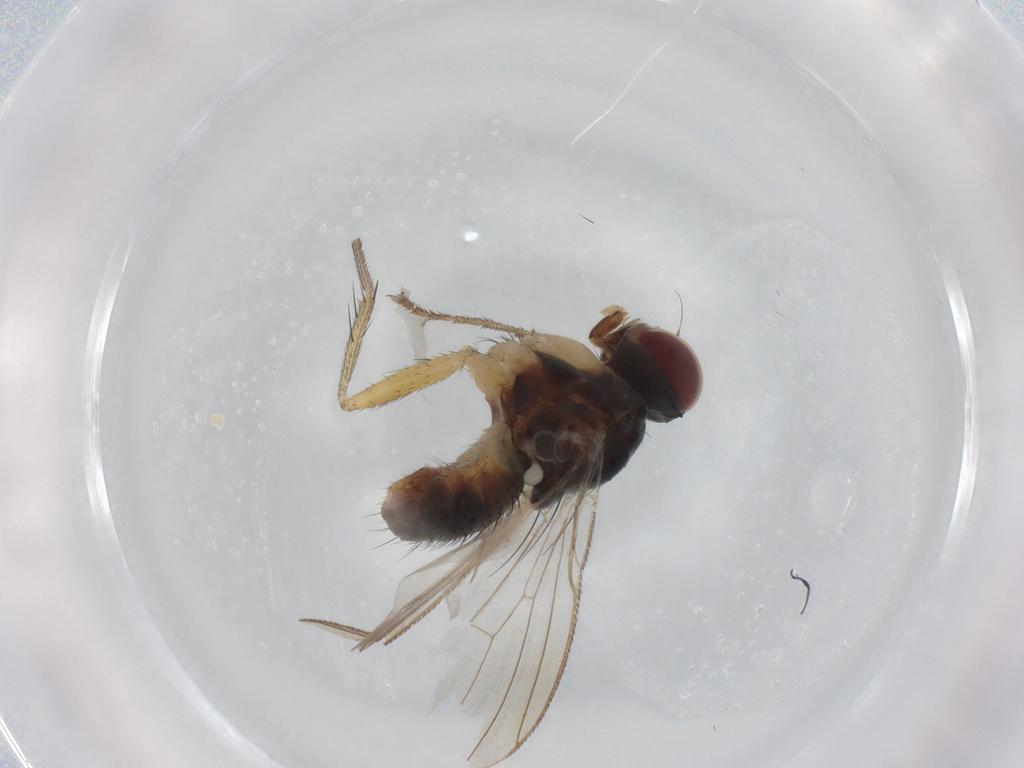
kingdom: Animalia
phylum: Arthropoda
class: Insecta
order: Diptera
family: Muscidae
